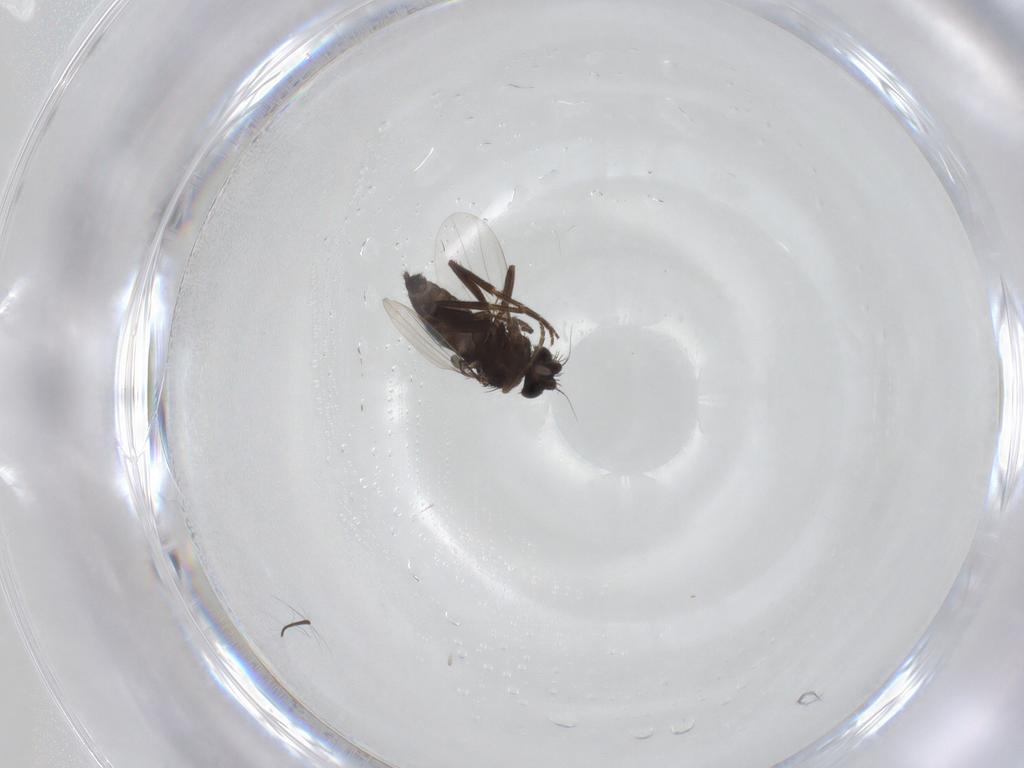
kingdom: Animalia
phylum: Arthropoda
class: Insecta
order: Diptera
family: Phoridae
